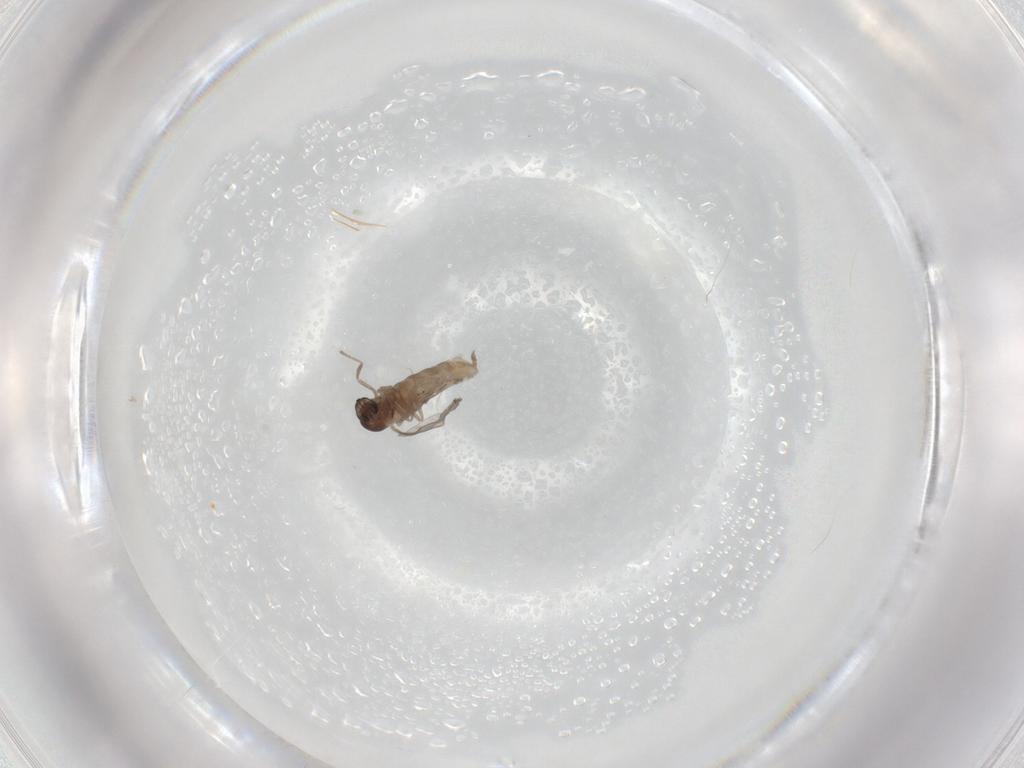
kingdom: Animalia
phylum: Arthropoda
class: Insecta
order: Diptera
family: Cecidomyiidae
